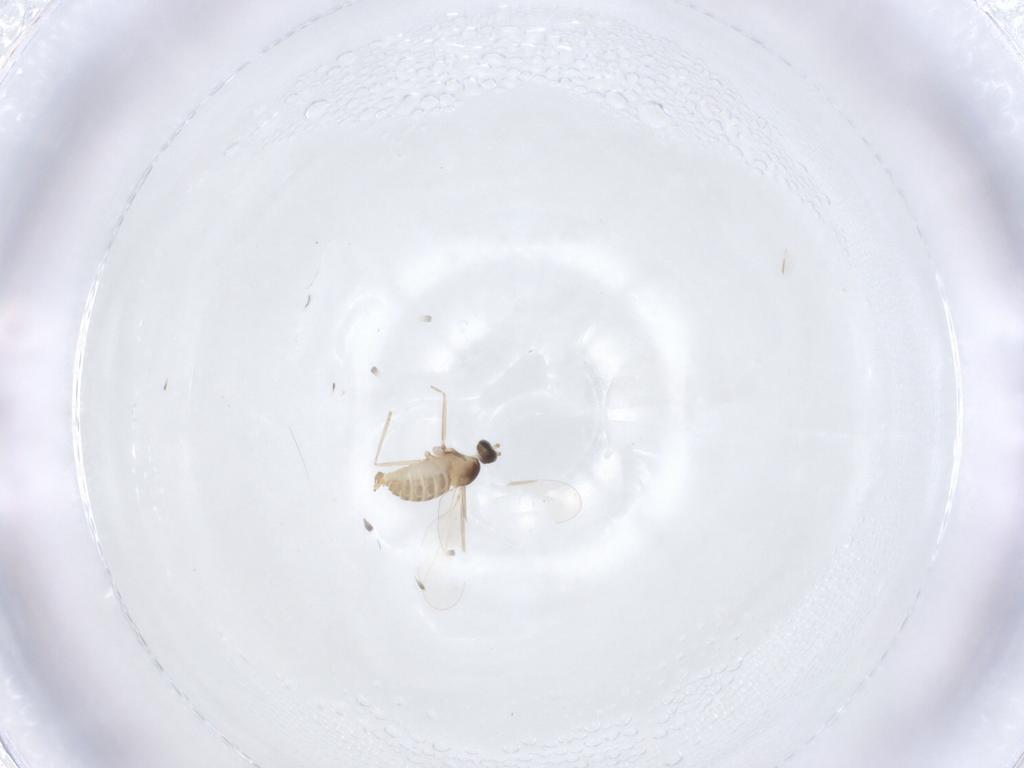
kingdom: Animalia
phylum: Arthropoda
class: Insecta
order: Diptera
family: Cecidomyiidae
